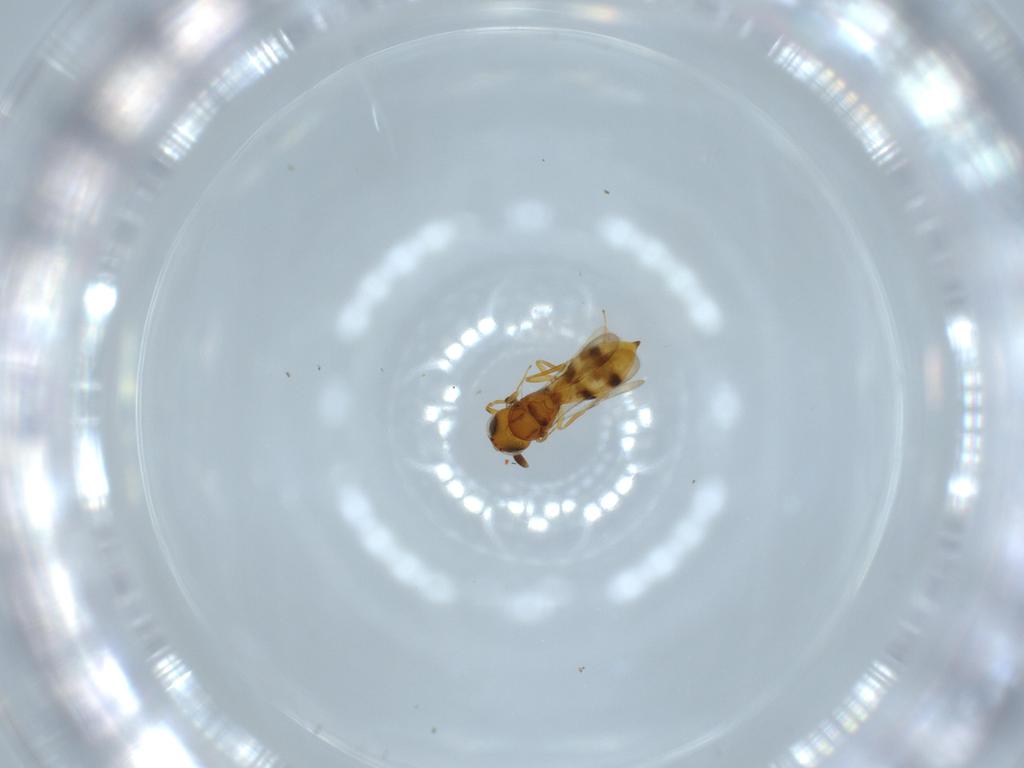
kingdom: Animalia
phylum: Arthropoda
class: Insecta
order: Hymenoptera
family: Scelionidae
